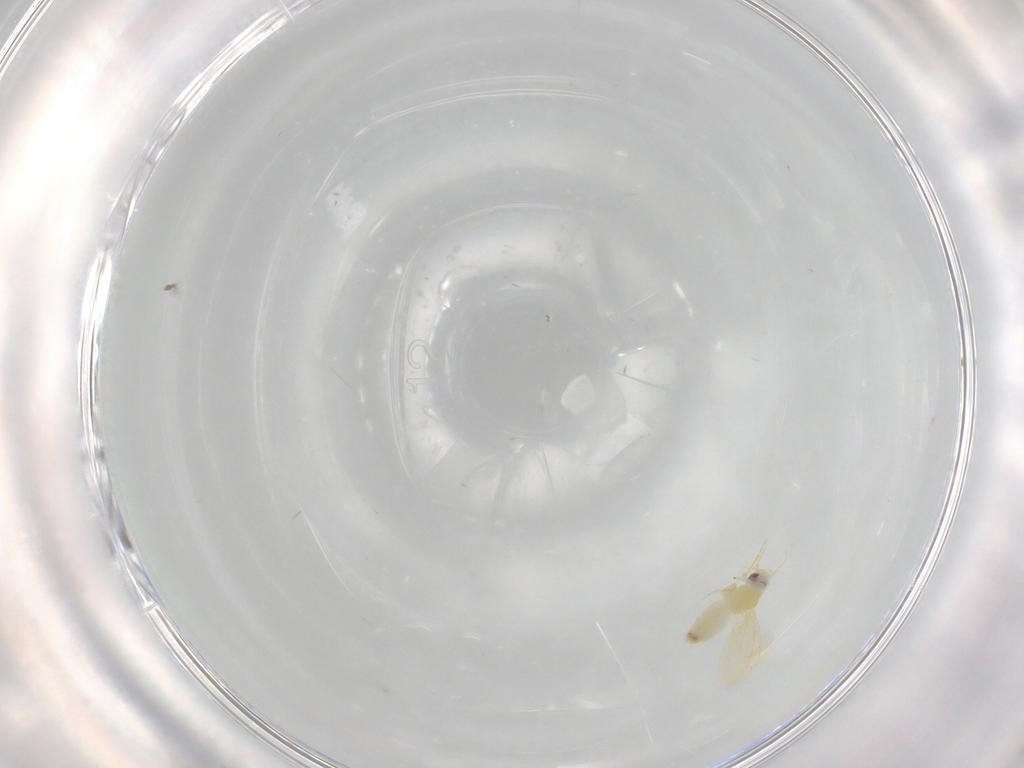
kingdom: Animalia
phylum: Arthropoda
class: Insecta
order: Hemiptera
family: Aleyrodidae
